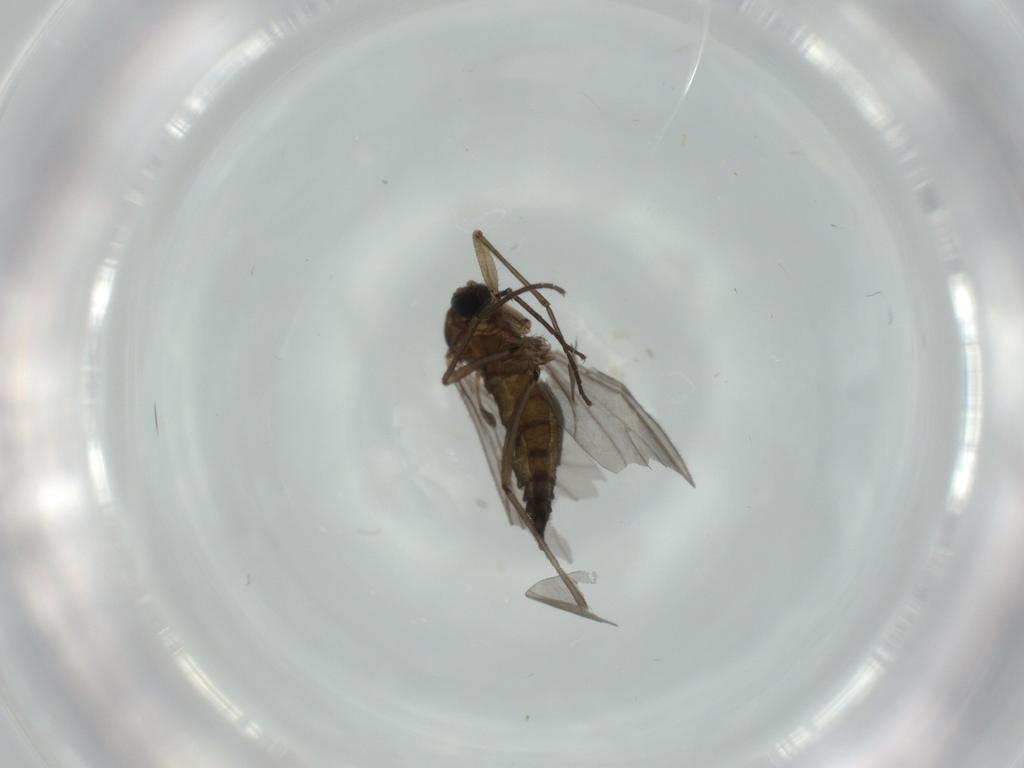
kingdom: Animalia
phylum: Arthropoda
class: Insecta
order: Diptera
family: Sciaridae
